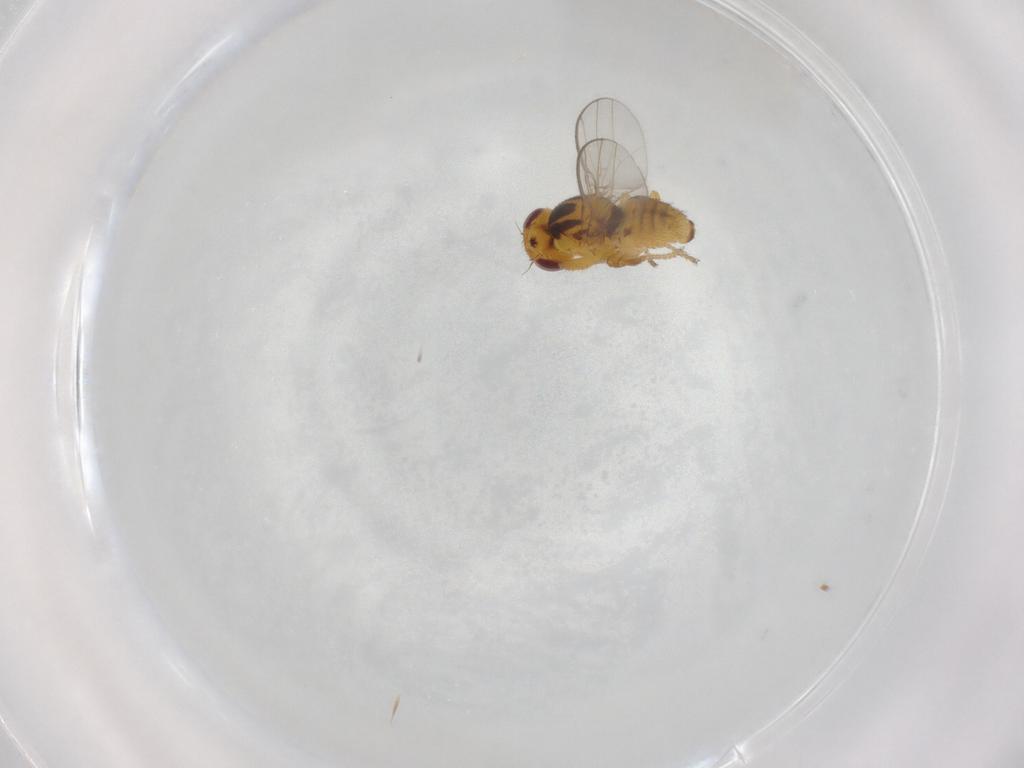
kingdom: Animalia
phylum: Arthropoda
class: Insecta
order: Diptera
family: Chloropidae
